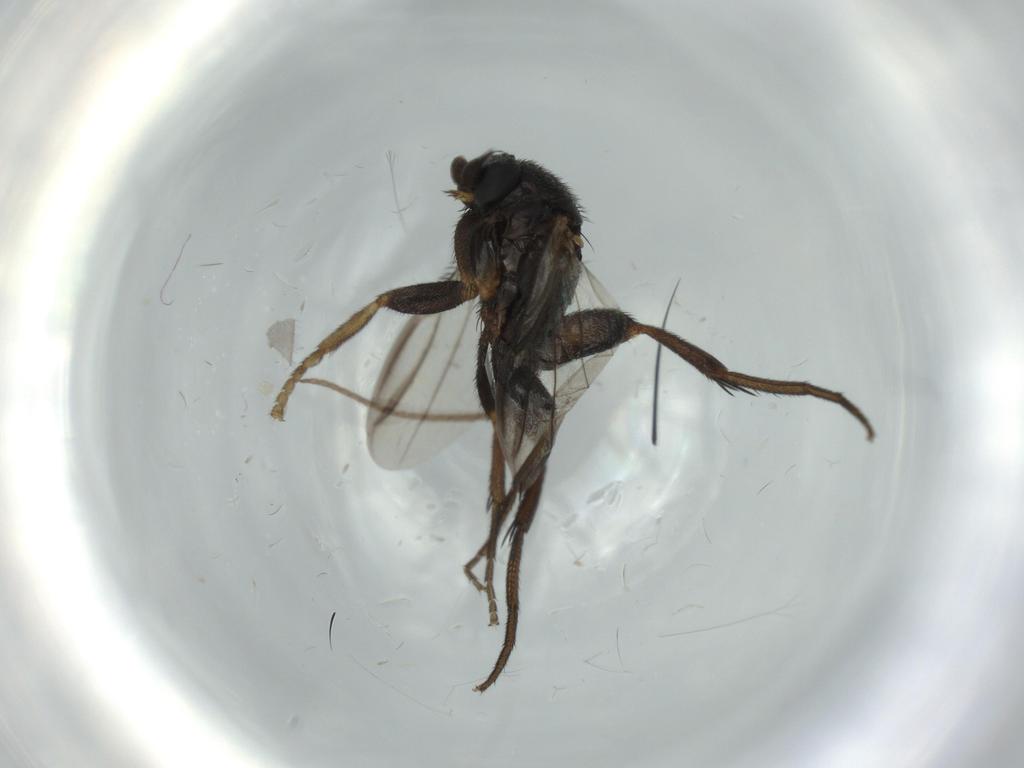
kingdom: Animalia
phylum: Arthropoda
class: Insecta
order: Diptera
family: Phoridae
